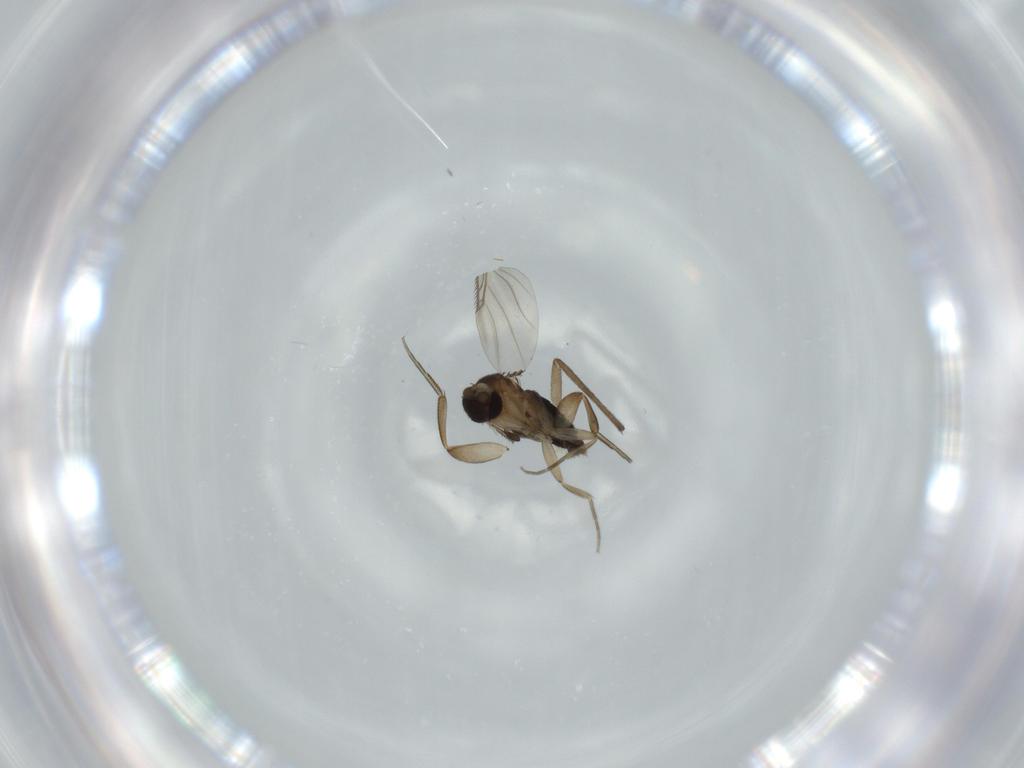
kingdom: Animalia
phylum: Arthropoda
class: Insecta
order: Diptera
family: Phoridae
